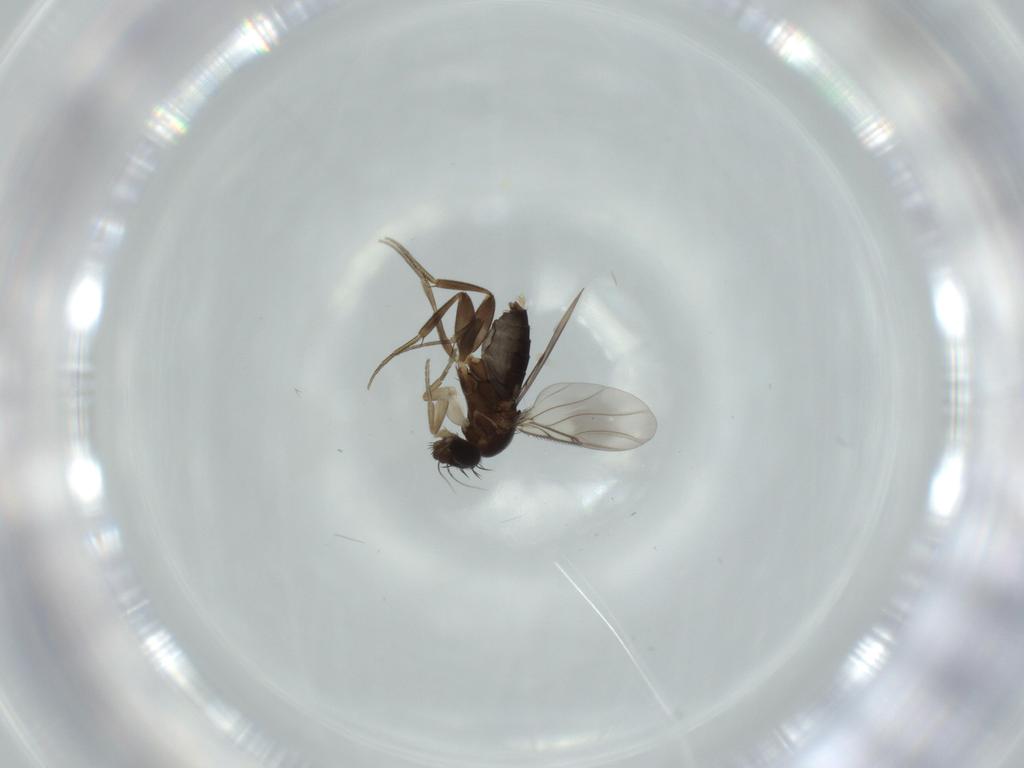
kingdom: Animalia
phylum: Arthropoda
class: Insecta
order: Diptera
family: Phoridae
